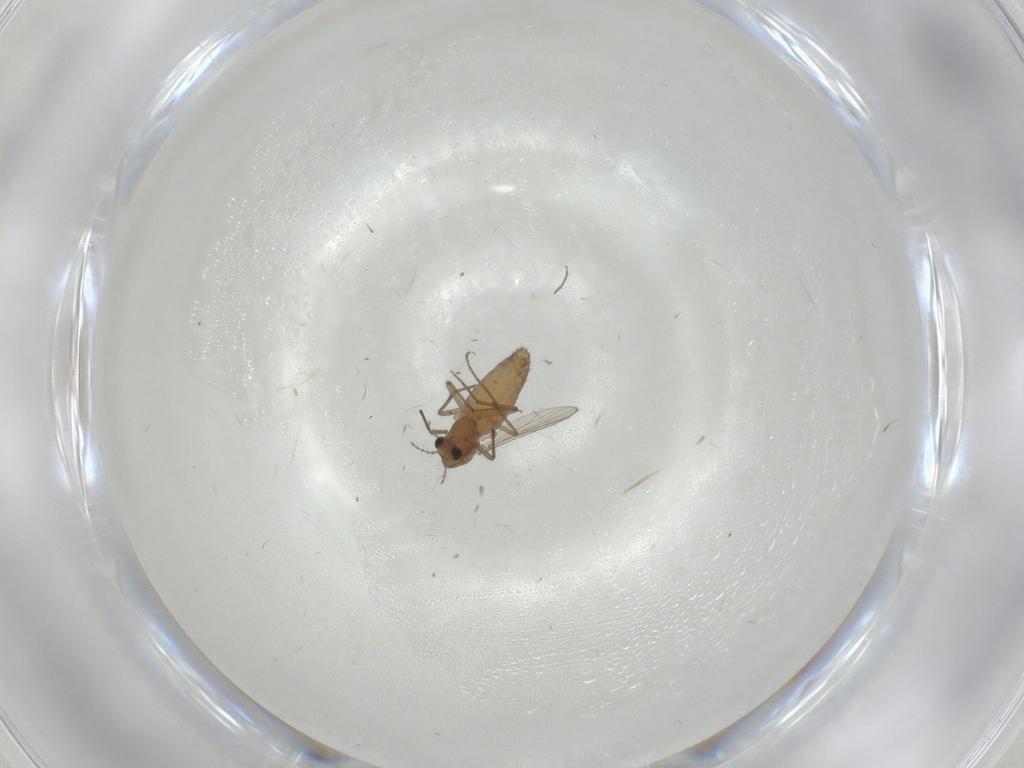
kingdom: Animalia
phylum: Arthropoda
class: Insecta
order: Diptera
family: Chironomidae
